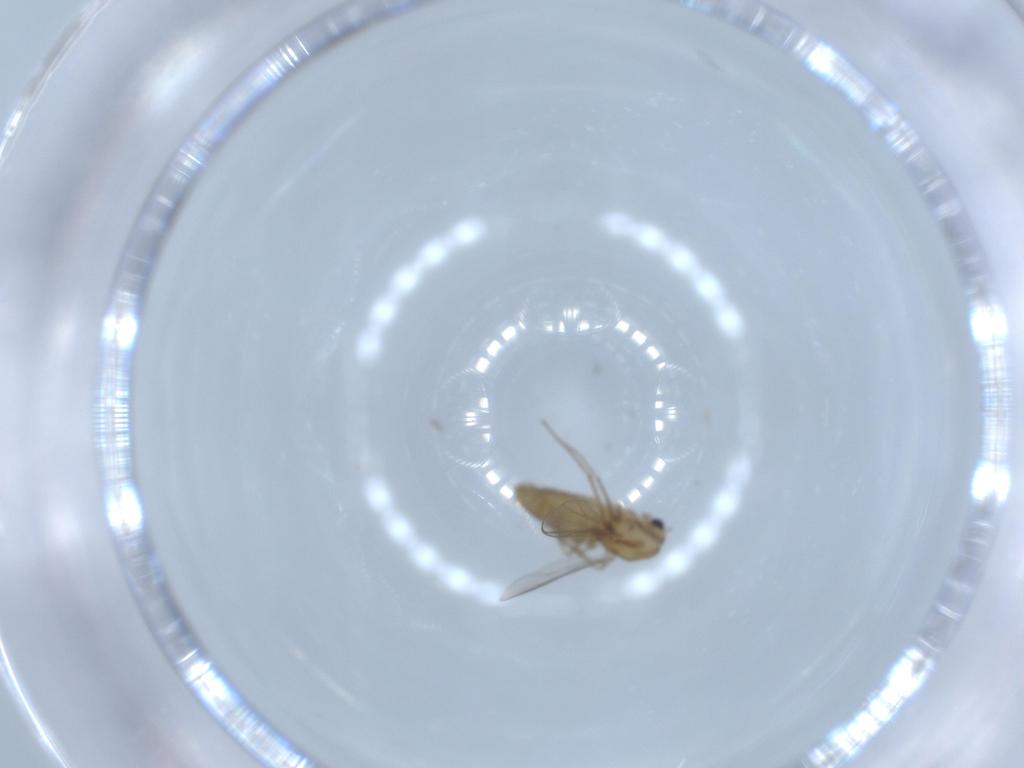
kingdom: Animalia
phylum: Arthropoda
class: Insecta
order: Diptera
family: Chironomidae
